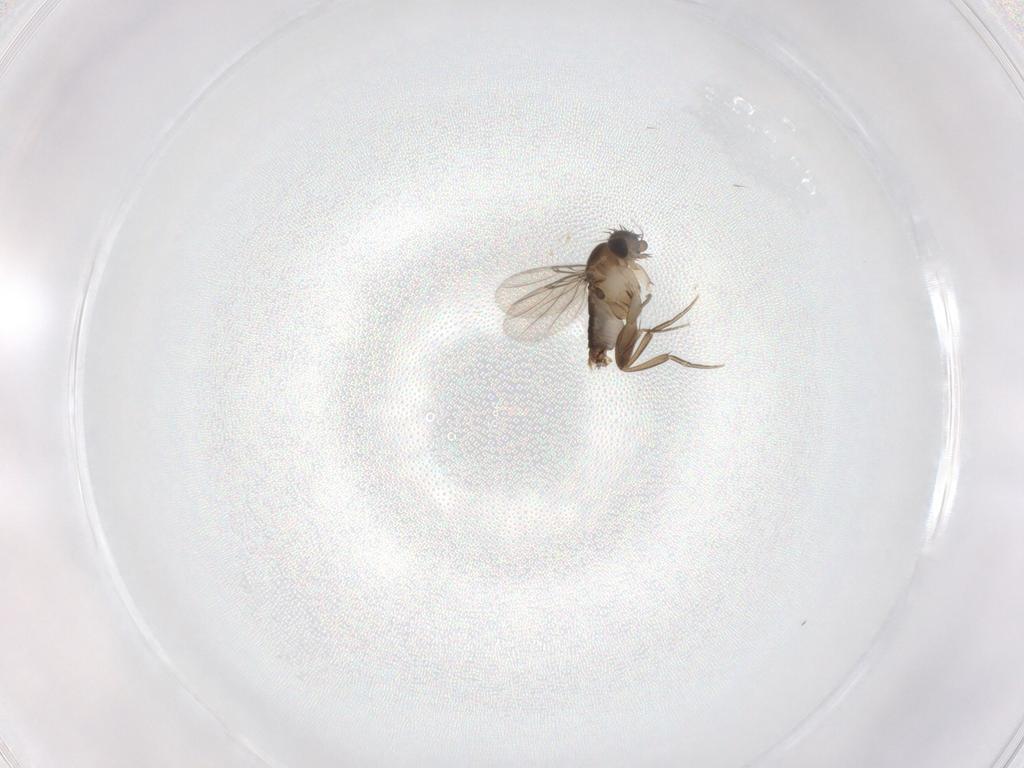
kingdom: Animalia
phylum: Arthropoda
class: Insecta
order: Diptera
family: Phoridae
